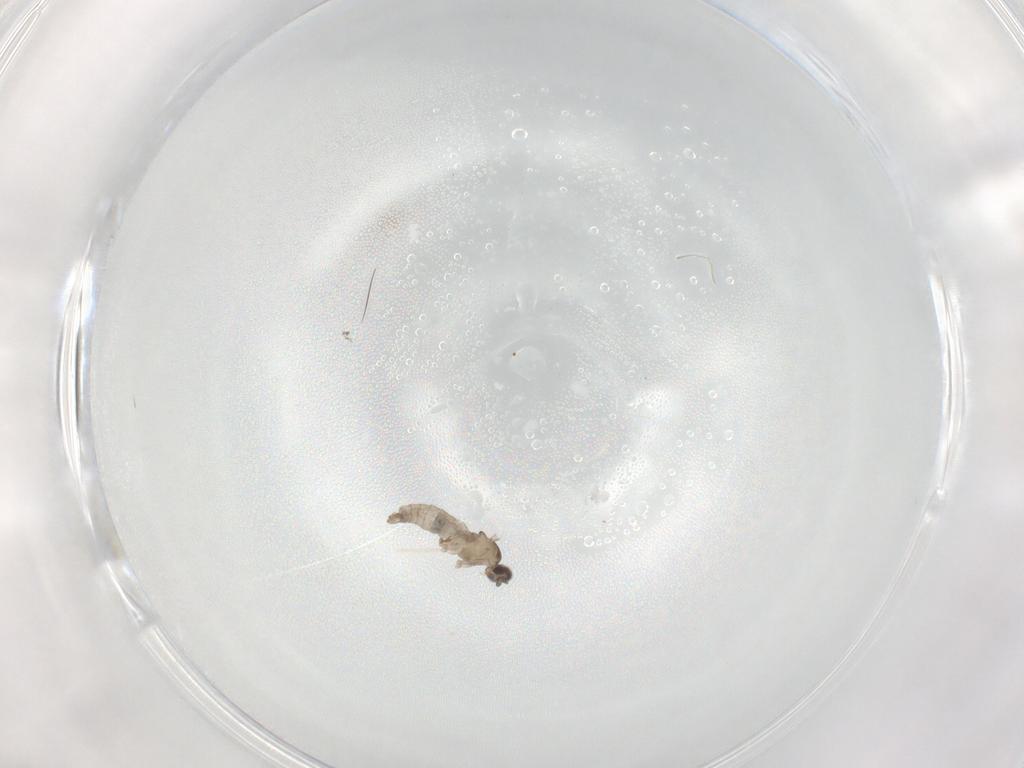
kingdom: Animalia
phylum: Arthropoda
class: Insecta
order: Diptera
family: Cecidomyiidae
